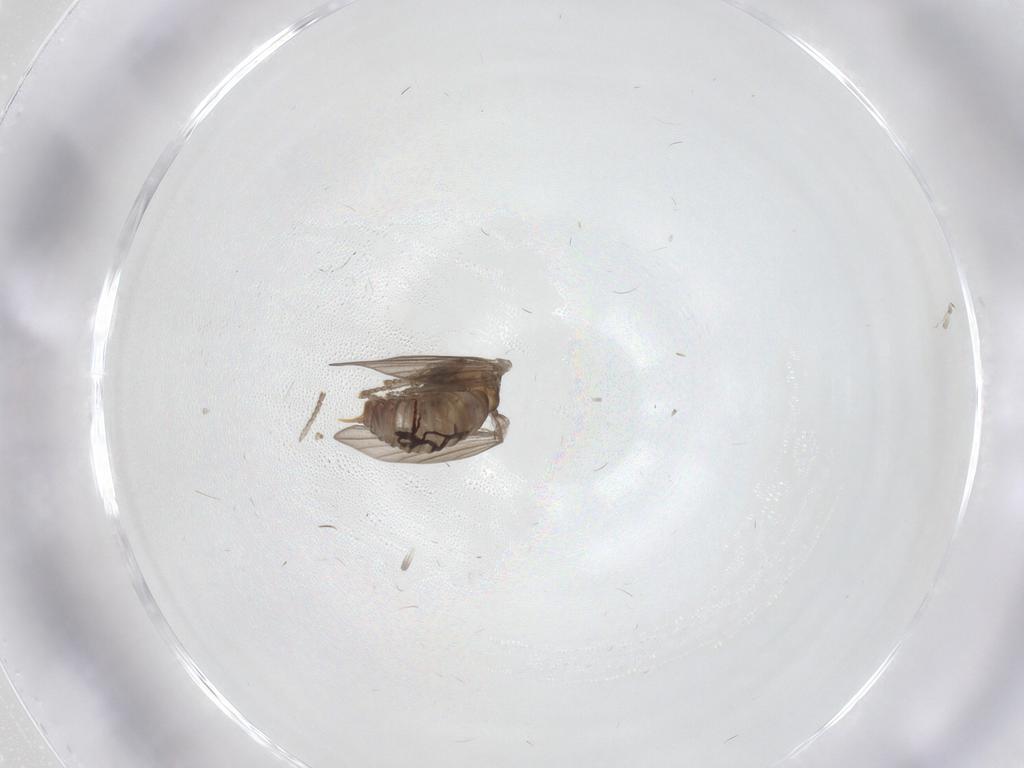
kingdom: Animalia
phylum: Arthropoda
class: Insecta
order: Diptera
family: Psychodidae
